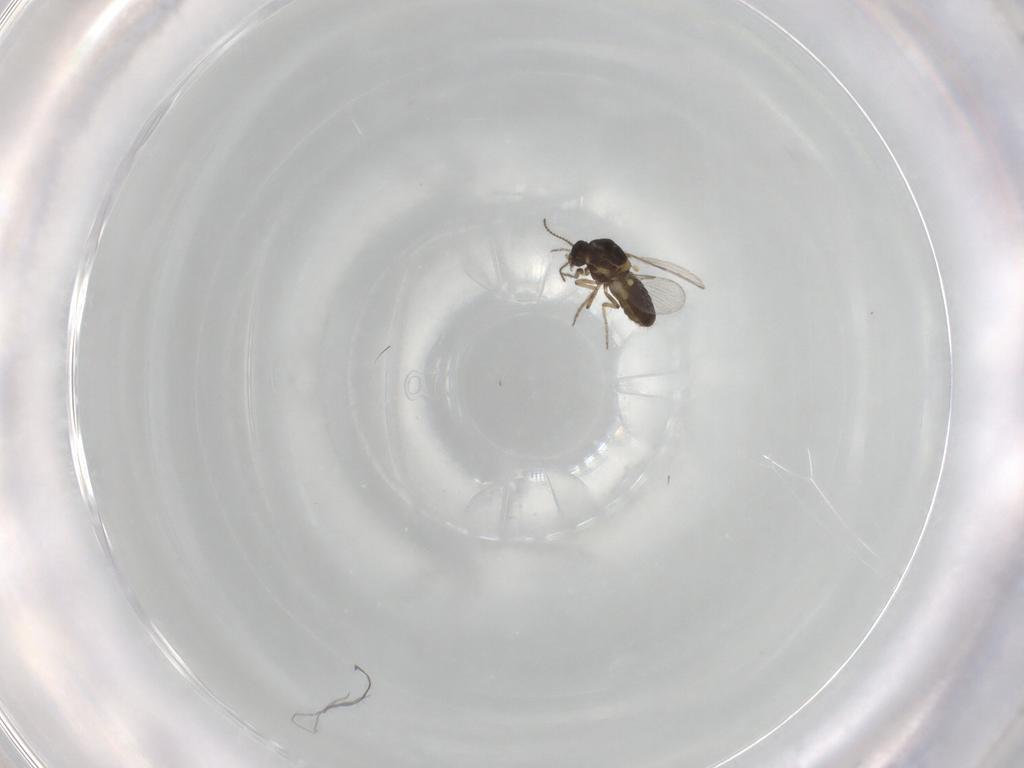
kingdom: Animalia
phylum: Arthropoda
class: Insecta
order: Diptera
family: Ceratopogonidae
